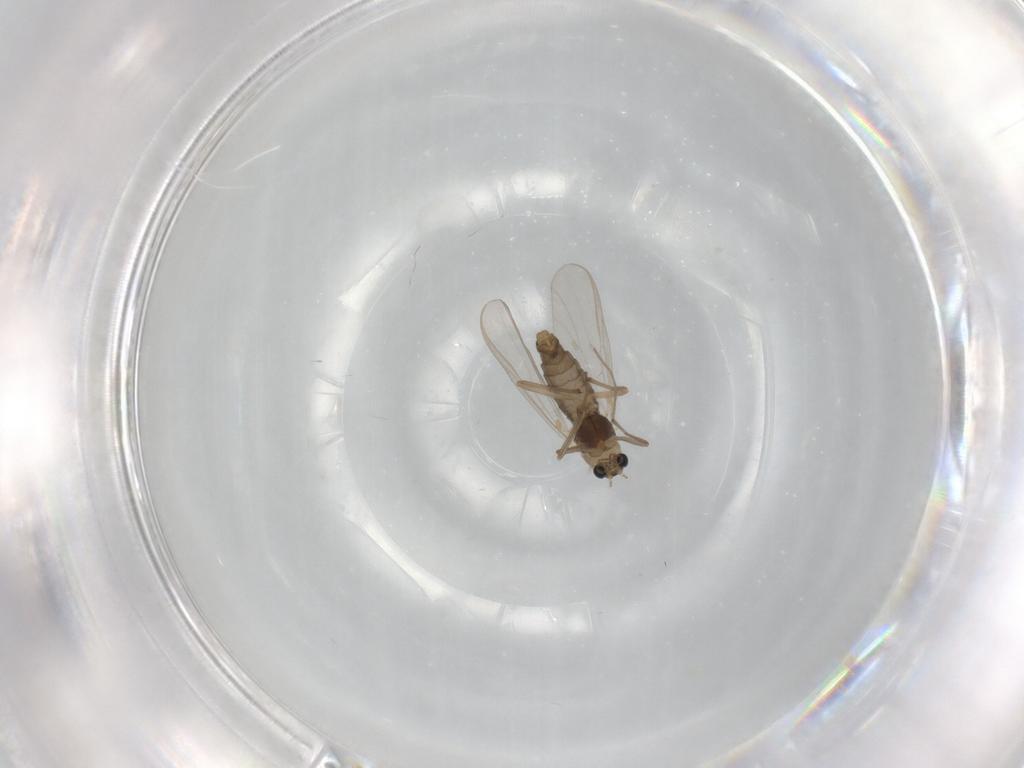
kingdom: Animalia
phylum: Arthropoda
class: Insecta
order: Diptera
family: Chironomidae
